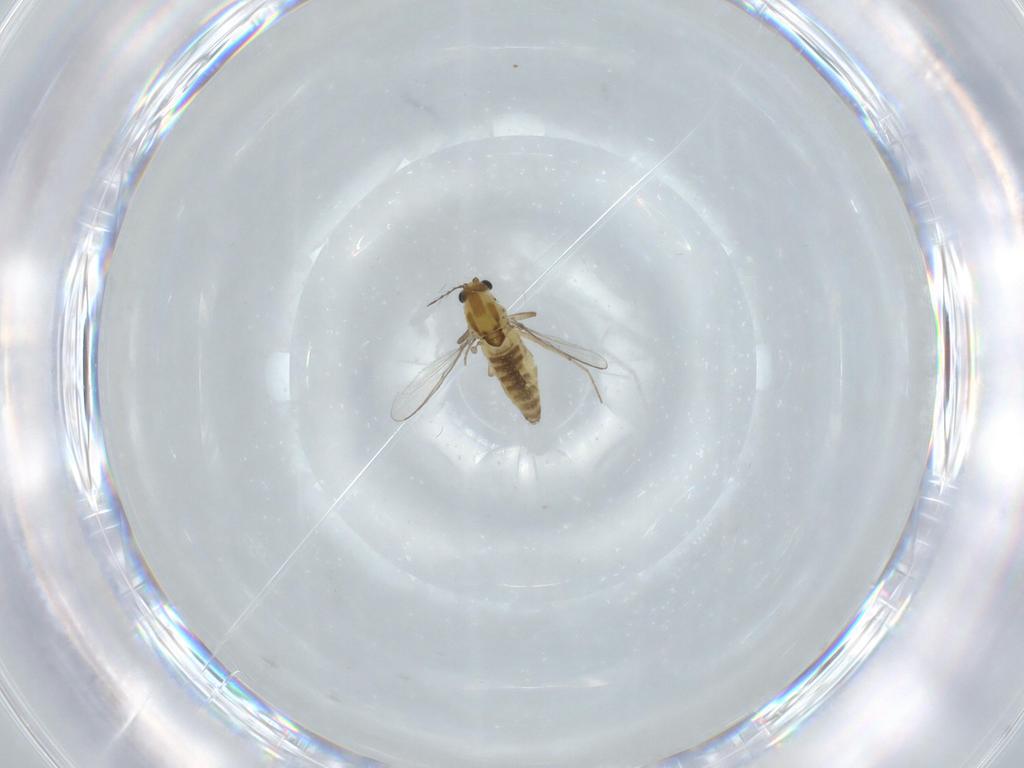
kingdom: Animalia
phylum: Arthropoda
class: Insecta
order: Diptera
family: Chironomidae
